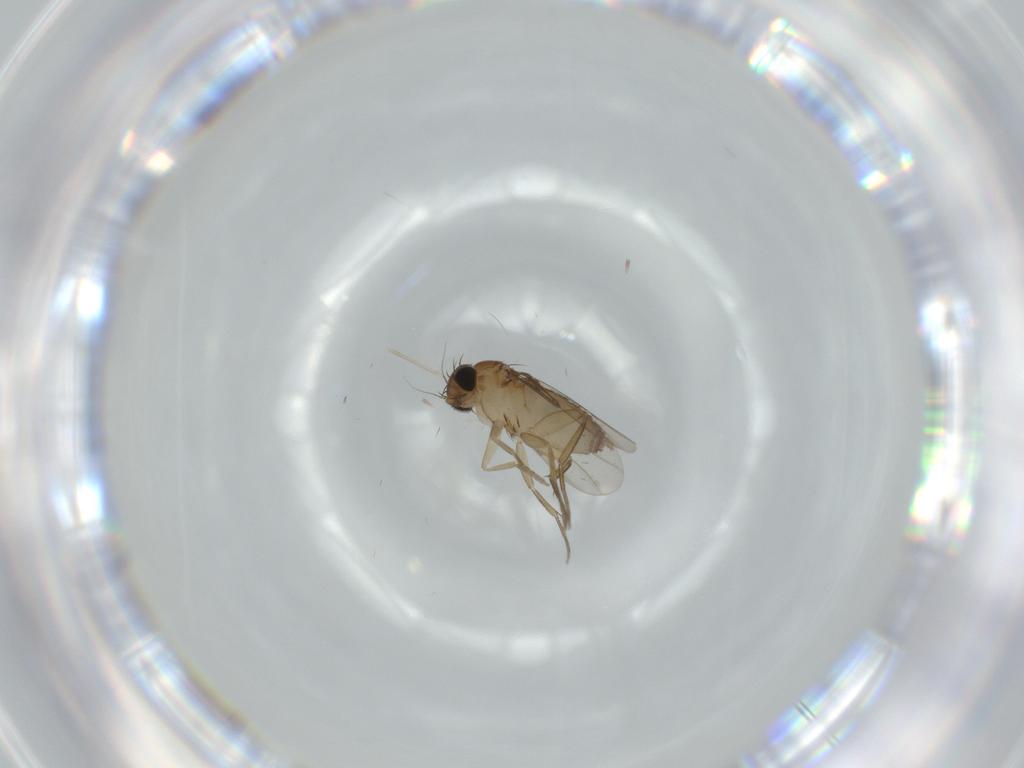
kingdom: Animalia
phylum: Arthropoda
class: Insecta
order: Diptera
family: Phoridae
